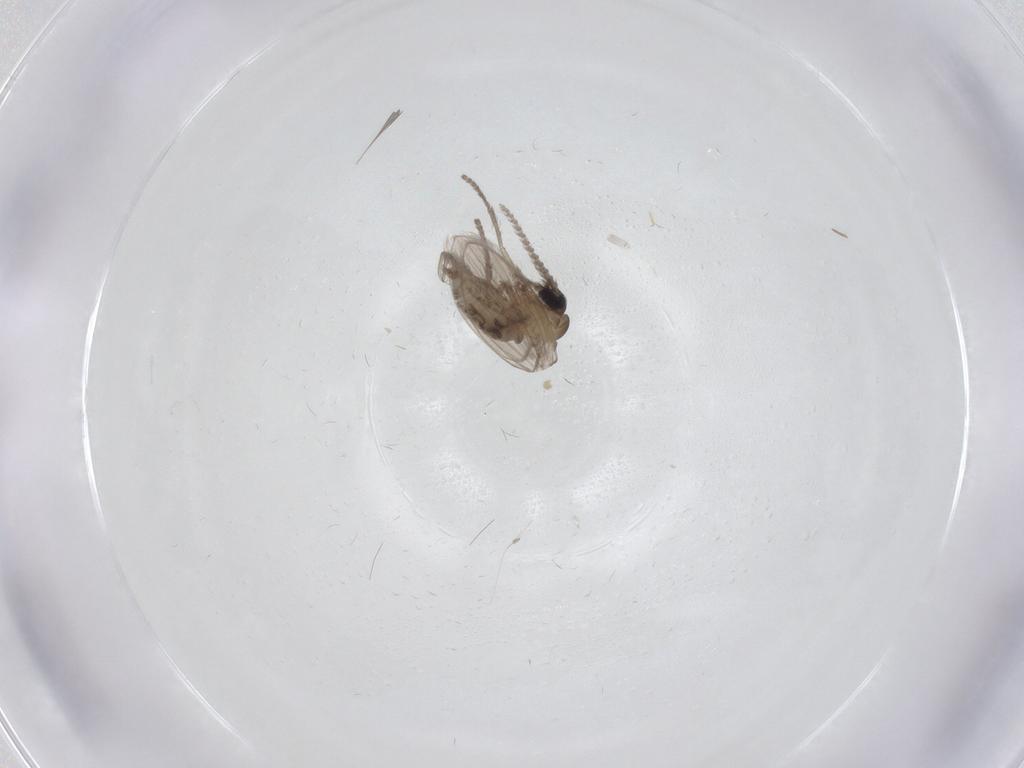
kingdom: Animalia
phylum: Arthropoda
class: Insecta
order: Diptera
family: Psychodidae
